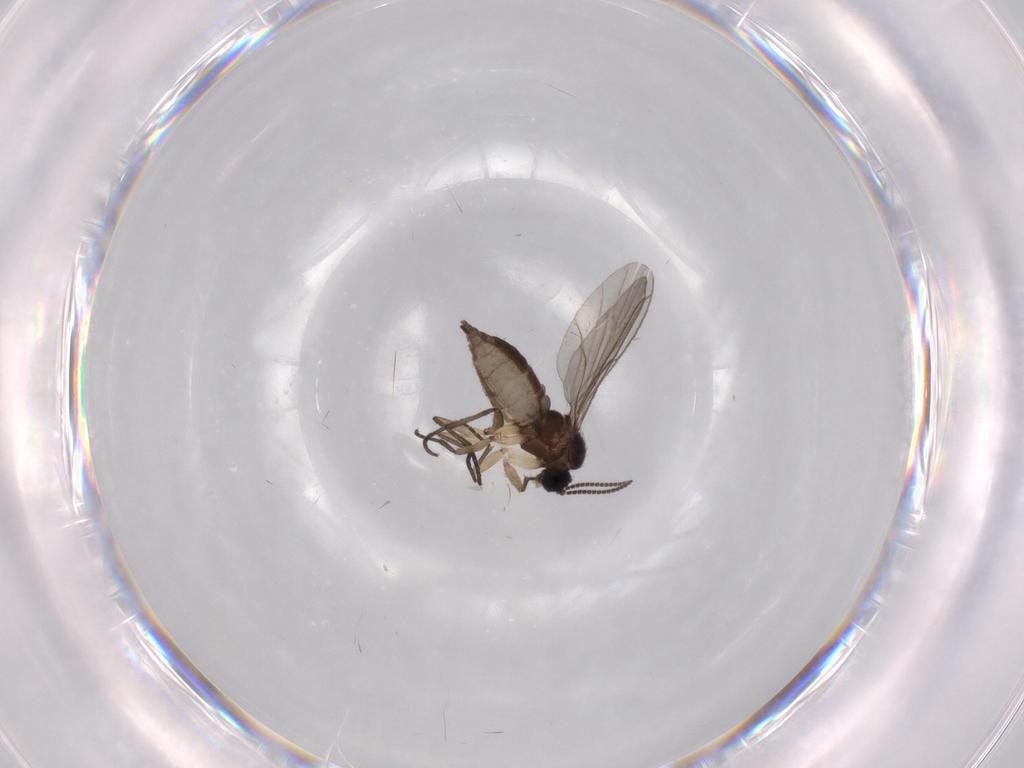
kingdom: Animalia
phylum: Arthropoda
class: Insecta
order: Diptera
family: Sciaridae
